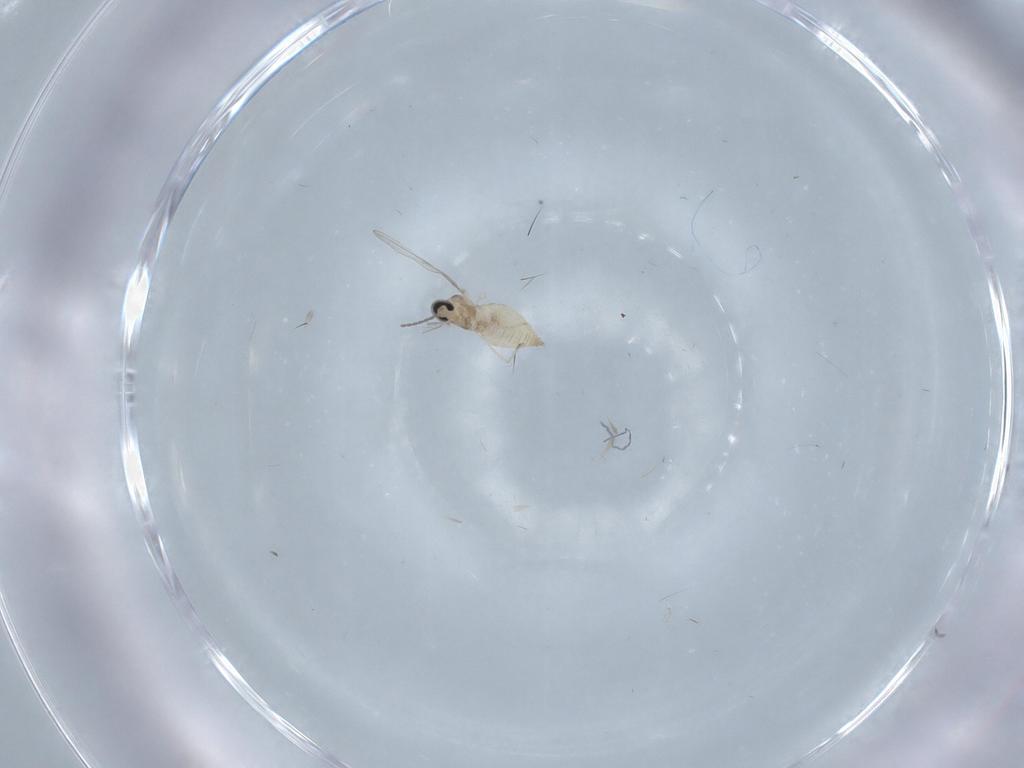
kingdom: Animalia
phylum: Arthropoda
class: Insecta
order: Diptera
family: Cecidomyiidae
